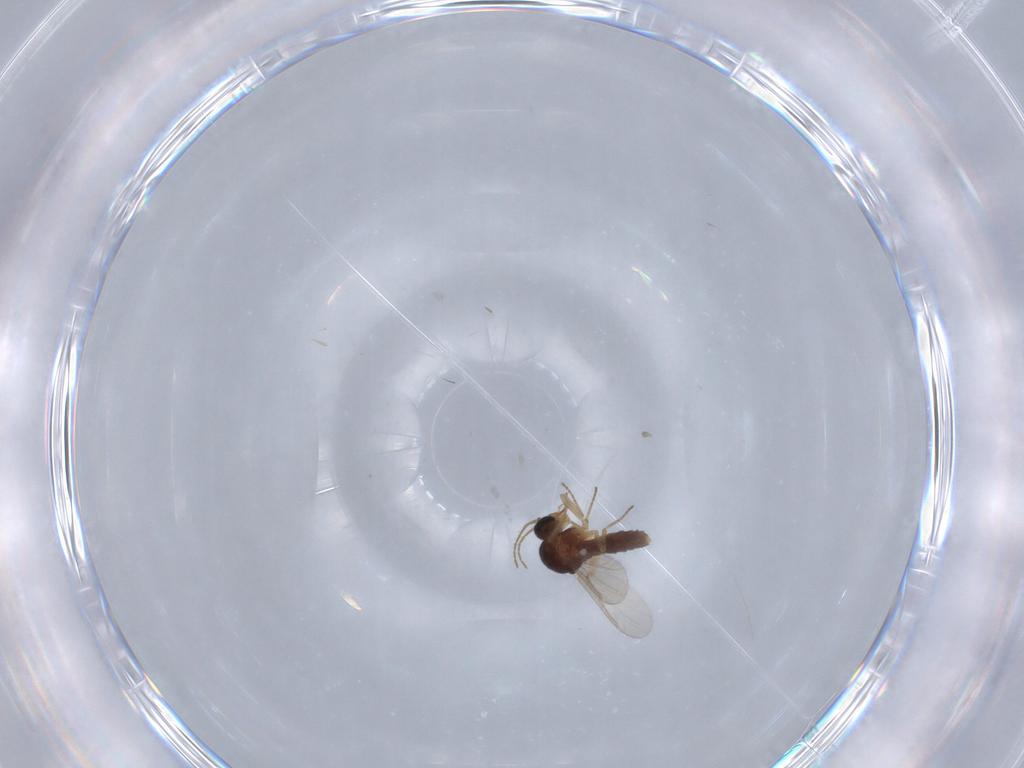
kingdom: Animalia
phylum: Arthropoda
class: Insecta
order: Diptera
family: Ceratopogonidae
